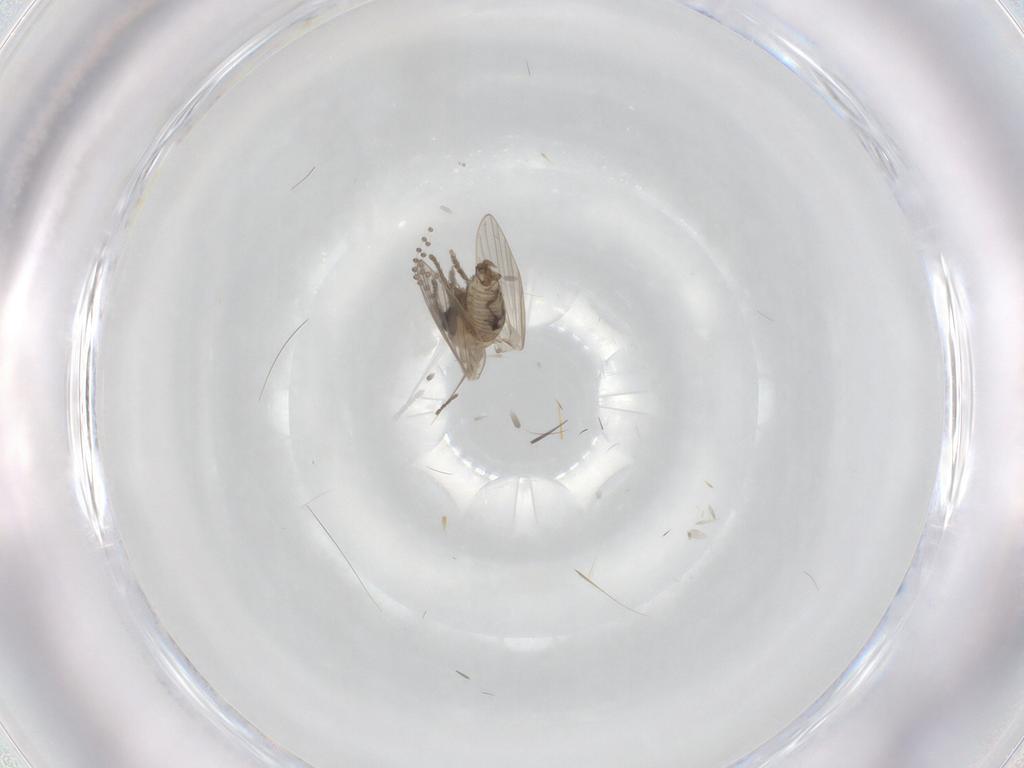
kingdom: Animalia
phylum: Arthropoda
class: Insecta
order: Diptera
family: Psychodidae
